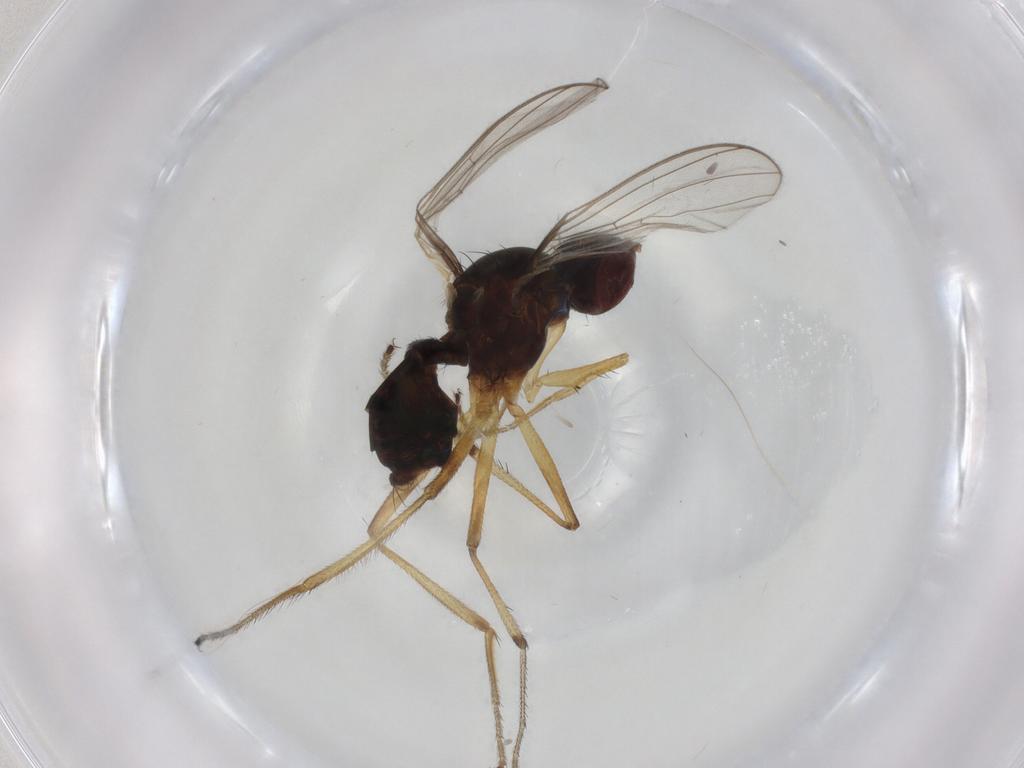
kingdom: Animalia
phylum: Arthropoda
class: Insecta
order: Diptera
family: Sepsidae
